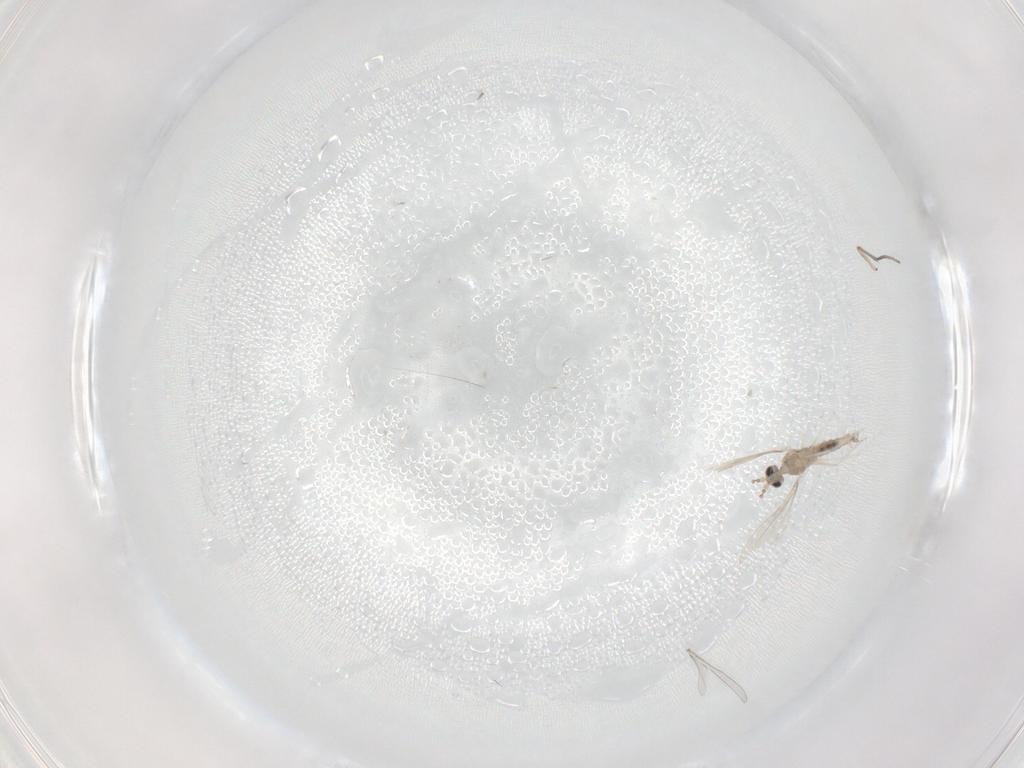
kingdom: Animalia
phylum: Arthropoda
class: Insecta
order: Diptera
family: Sciaridae
